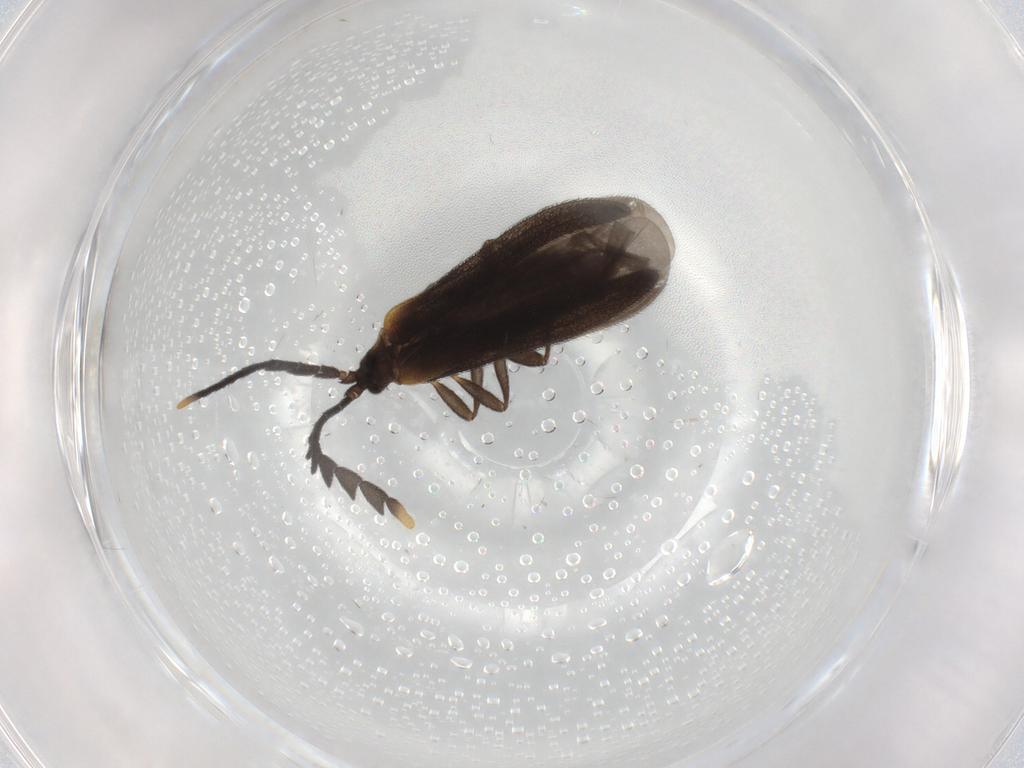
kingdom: Animalia
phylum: Arthropoda
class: Insecta
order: Coleoptera
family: Lycidae
